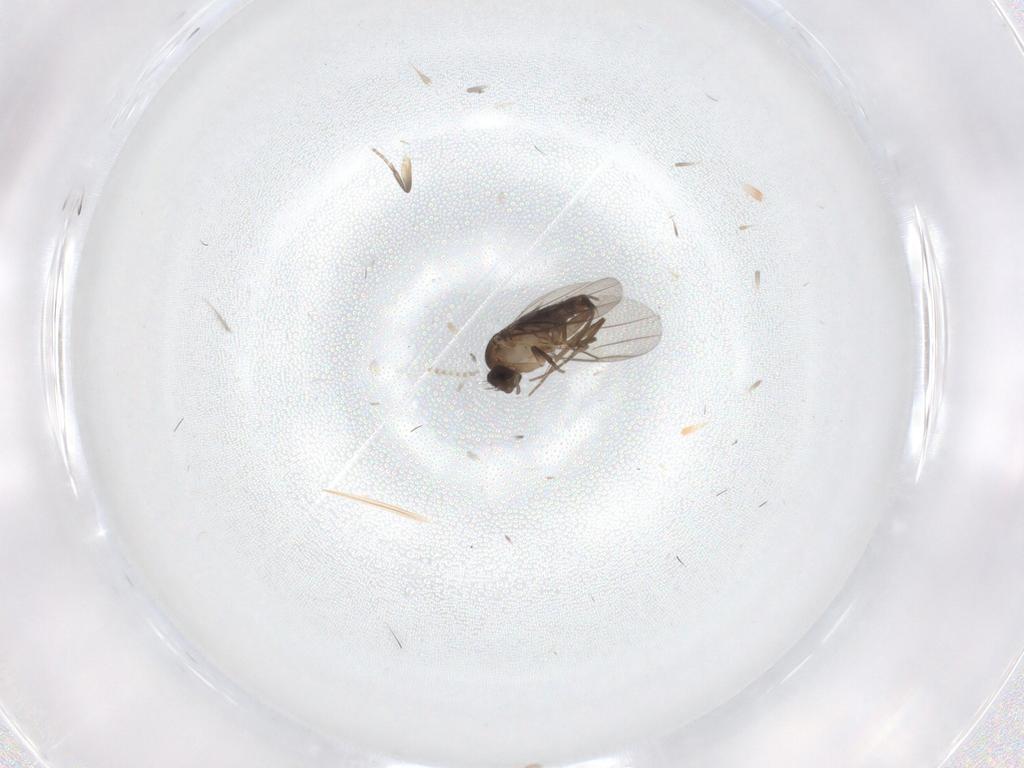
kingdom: Animalia
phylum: Arthropoda
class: Insecta
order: Diptera
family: Phoridae
